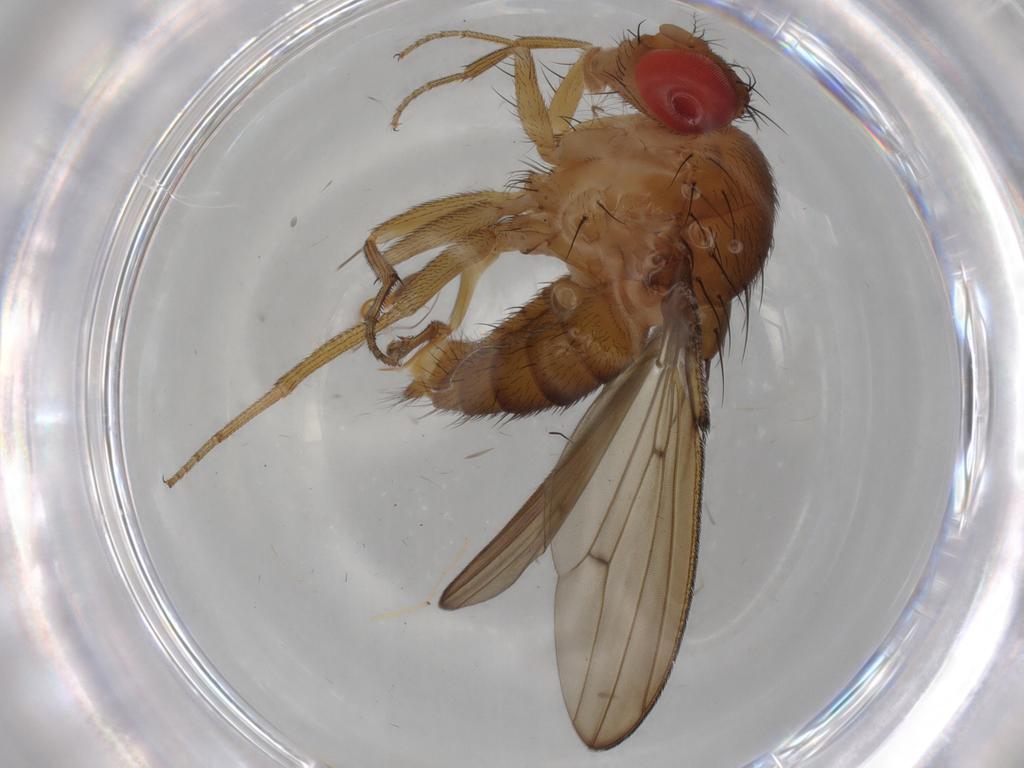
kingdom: Animalia
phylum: Arthropoda
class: Insecta
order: Diptera
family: Drosophilidae
